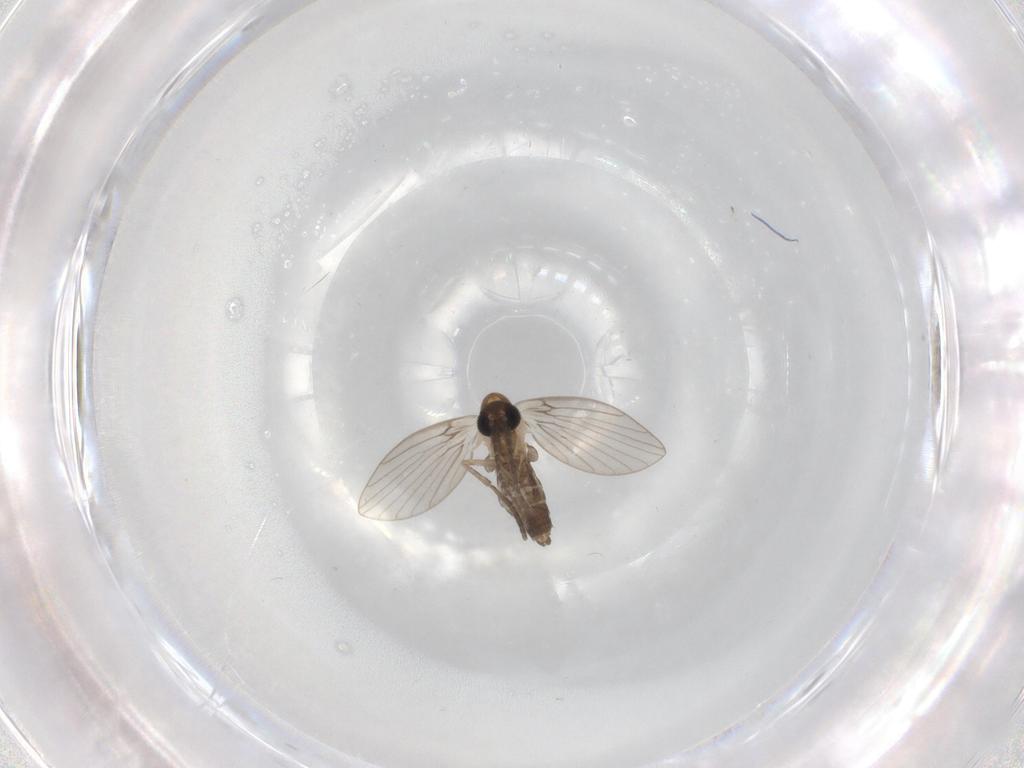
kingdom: Animalia
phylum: Arthropoda
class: Insecta
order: Diptera
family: Psychodidae
